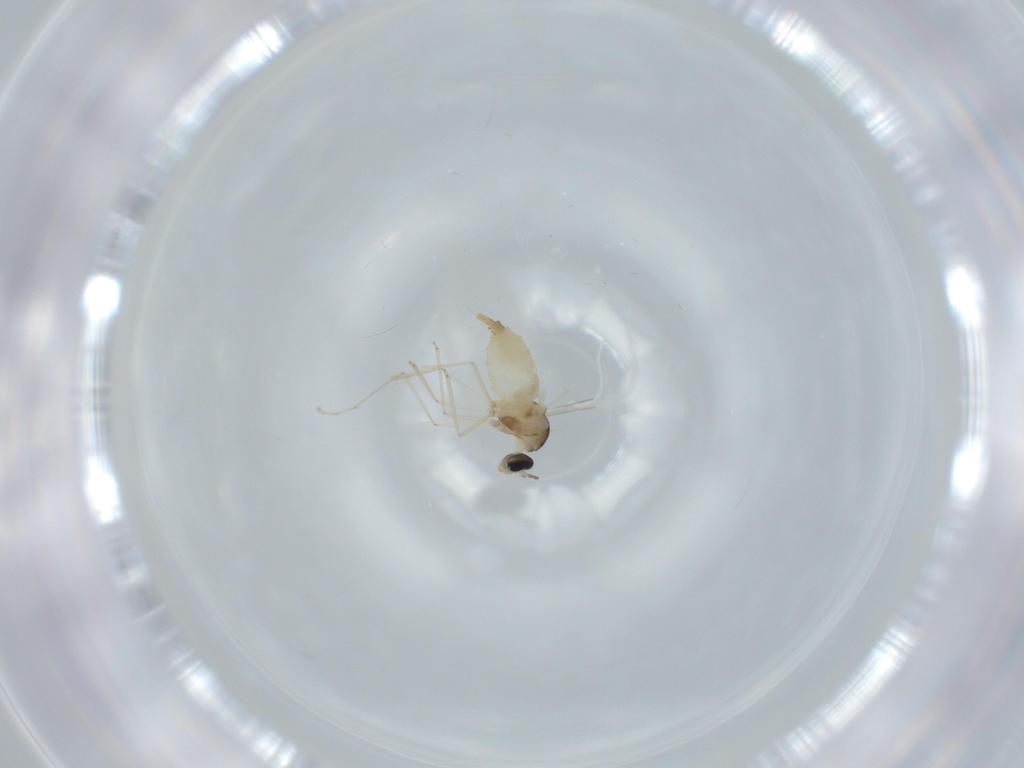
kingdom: Animalia
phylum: Arthropoda
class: Insecta
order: Diptera
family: Cecidomyiidae
